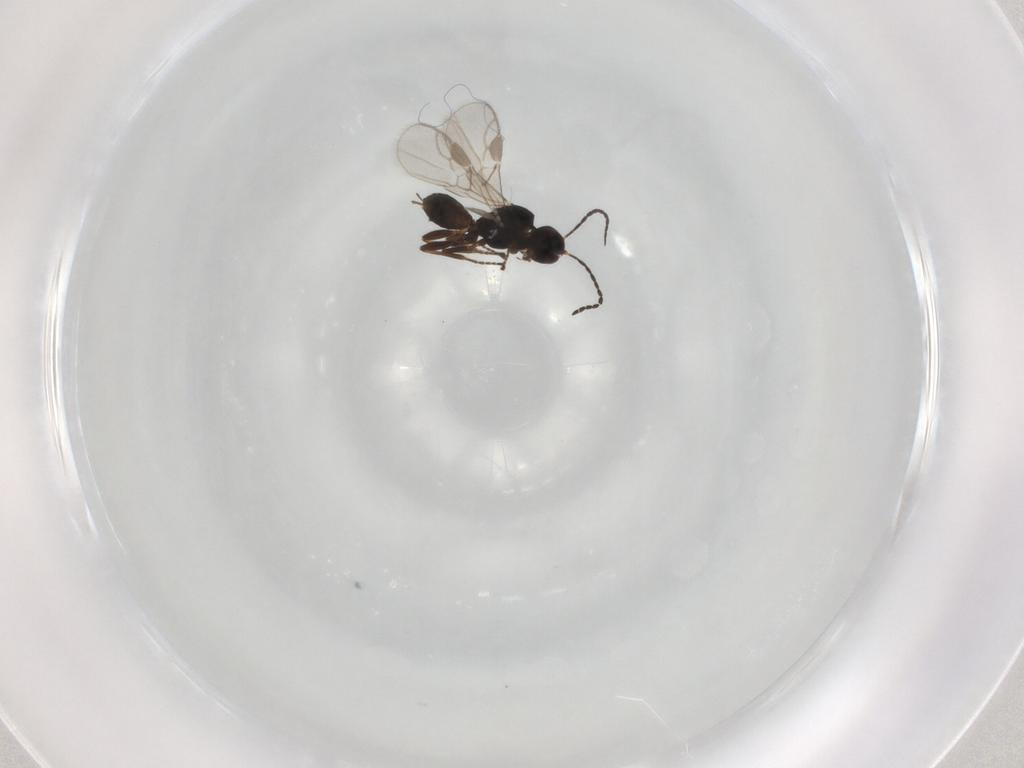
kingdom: Animalia
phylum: Arthropoda
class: Insecta
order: Hymenoptera
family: Braconidae
